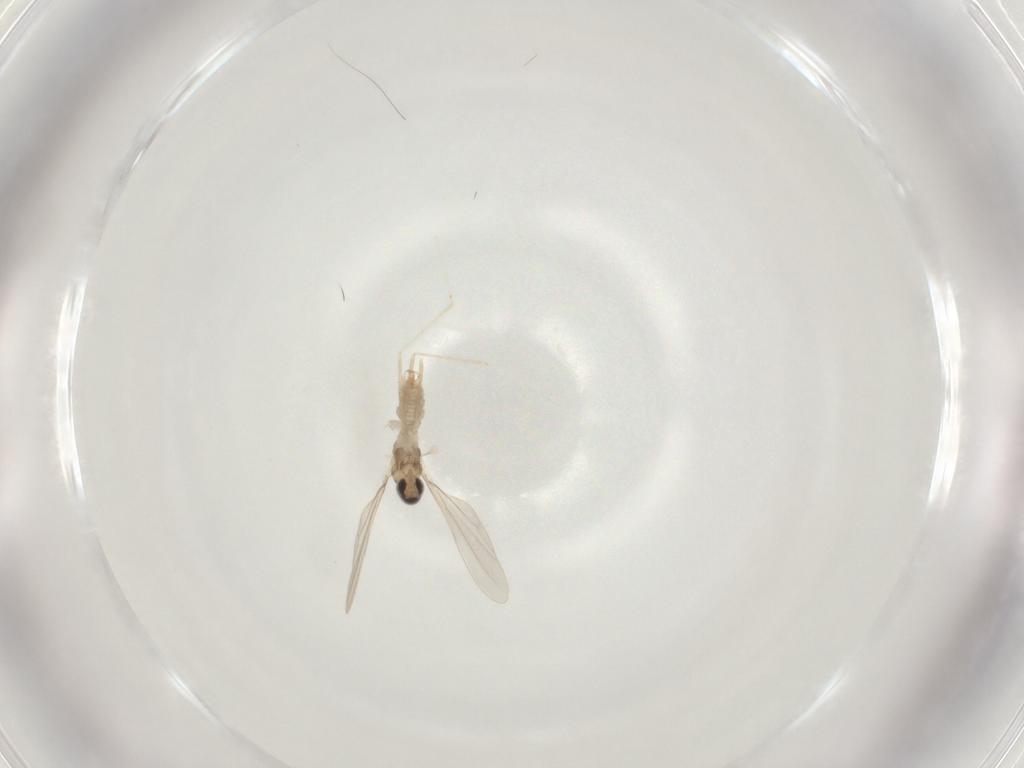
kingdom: Animalia
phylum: Arthropoda
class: Insecta
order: Diptera
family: Cecidomyiidae
